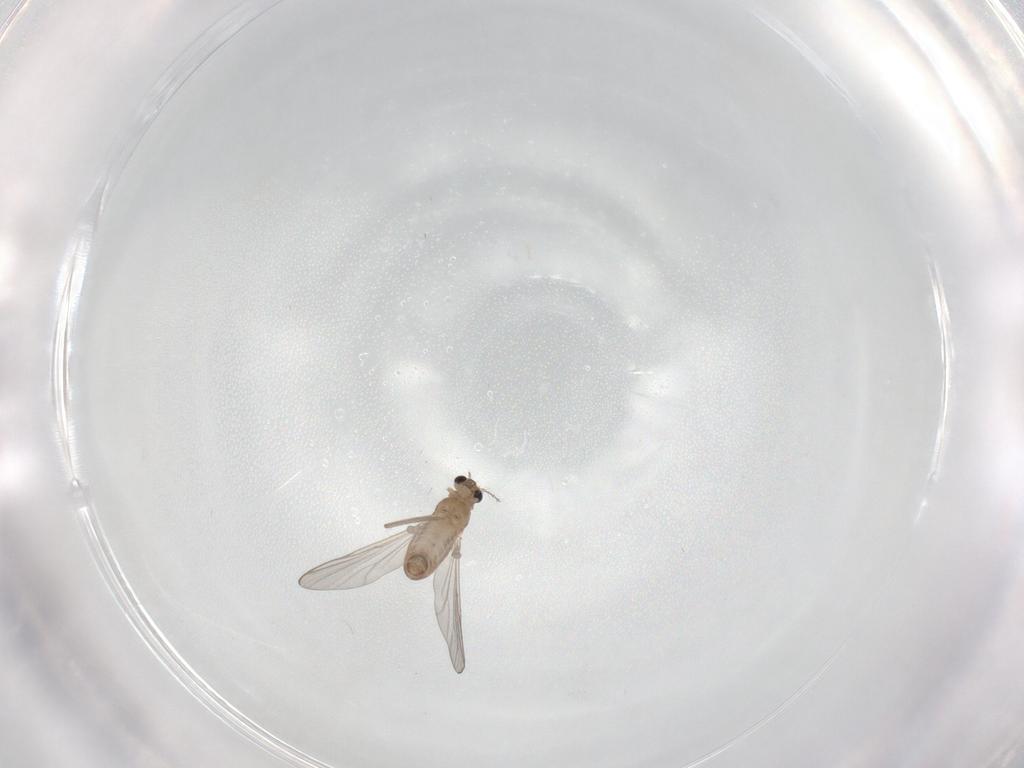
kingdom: Animalia
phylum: Arthropoda
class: Insecta
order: Diptera
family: Chironomidae
